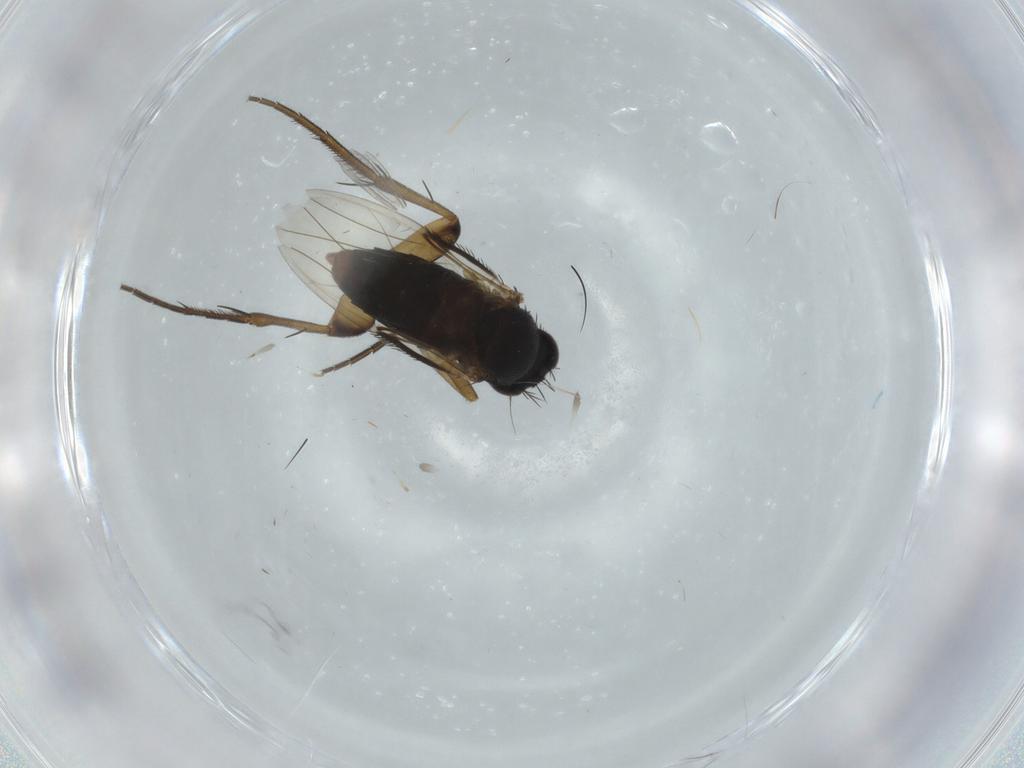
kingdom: Animalia
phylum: Arthropoda
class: Insecta
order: Diptera
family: Phoridae
